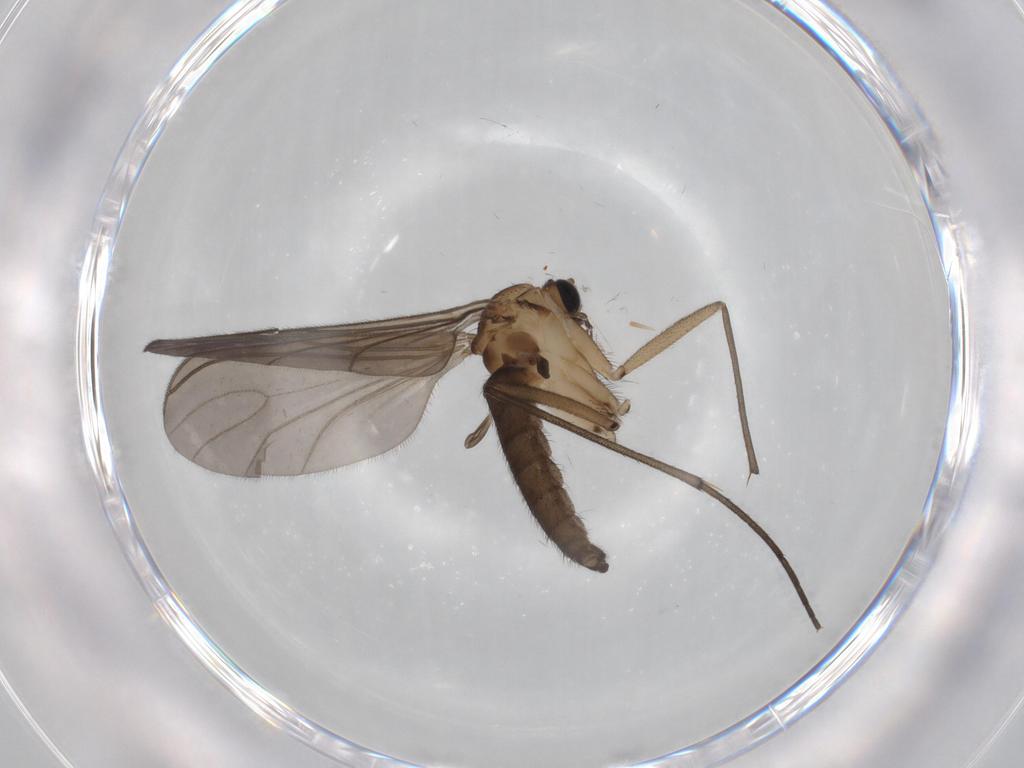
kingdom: Animalia
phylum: Arthropoda
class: Insecta
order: Diptera
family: Sciaridae
